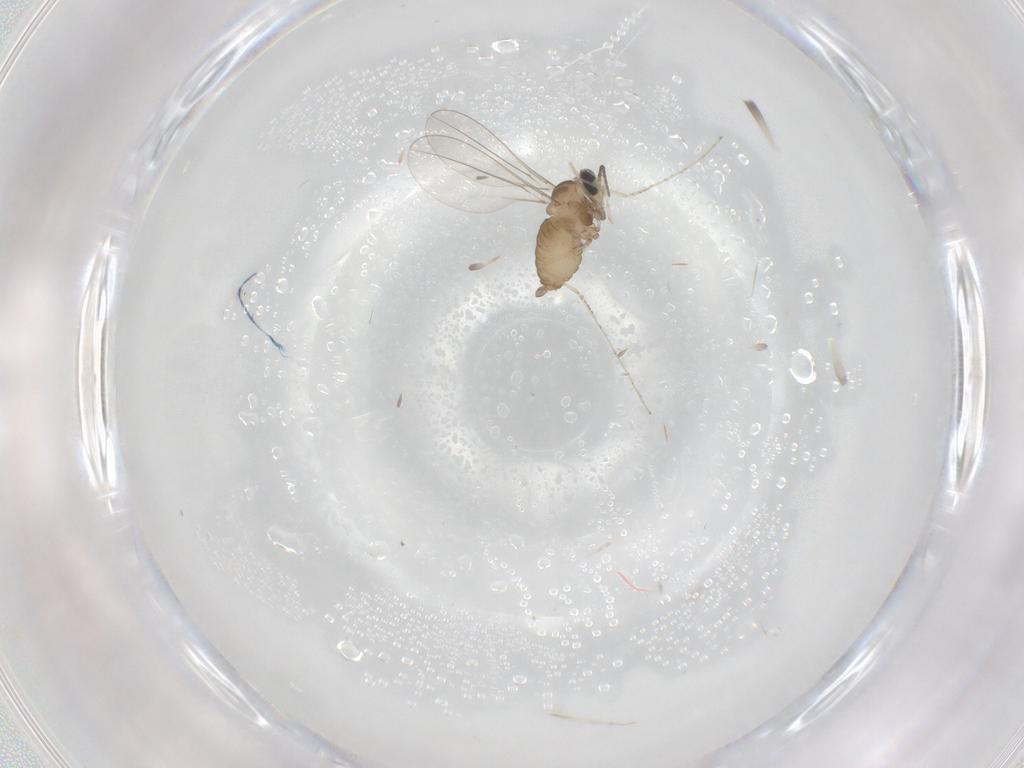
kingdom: Animalia
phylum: Arthropoda
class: Insecta
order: Diptera
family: Cecidomyiidae
